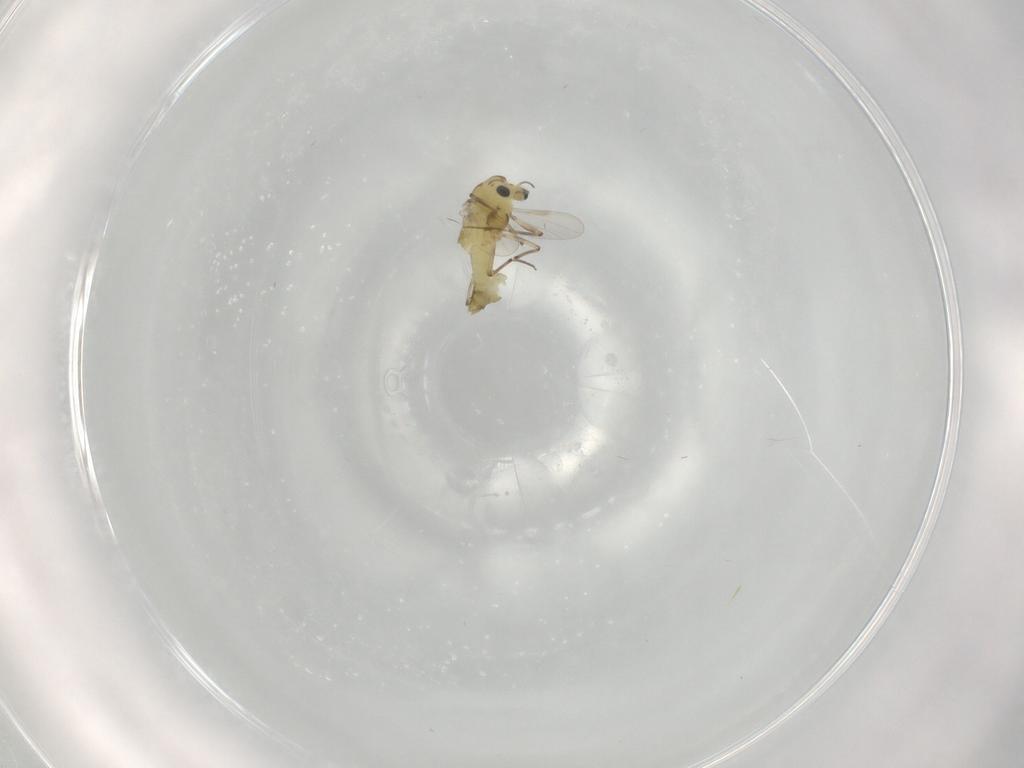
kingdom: Animalia
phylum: Arthropoda
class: Insecta
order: Diptera
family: Chironomidae
